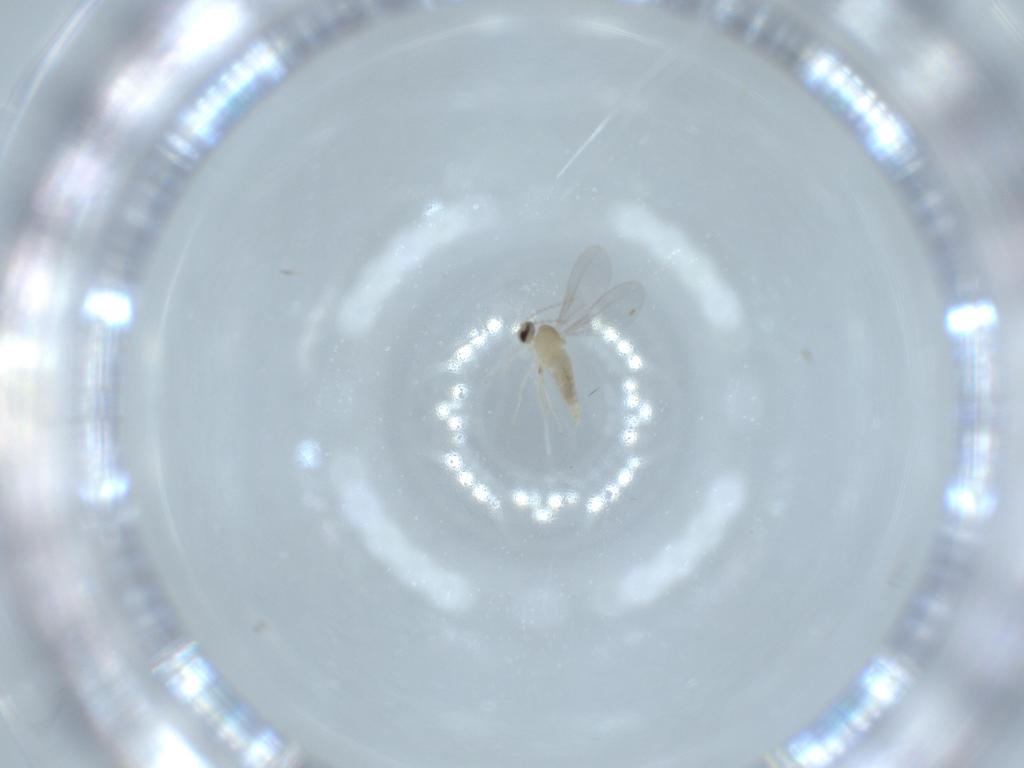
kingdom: Animalia
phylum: Arthropoda
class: Insecta
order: Diptera
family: Cecidomyiidae
